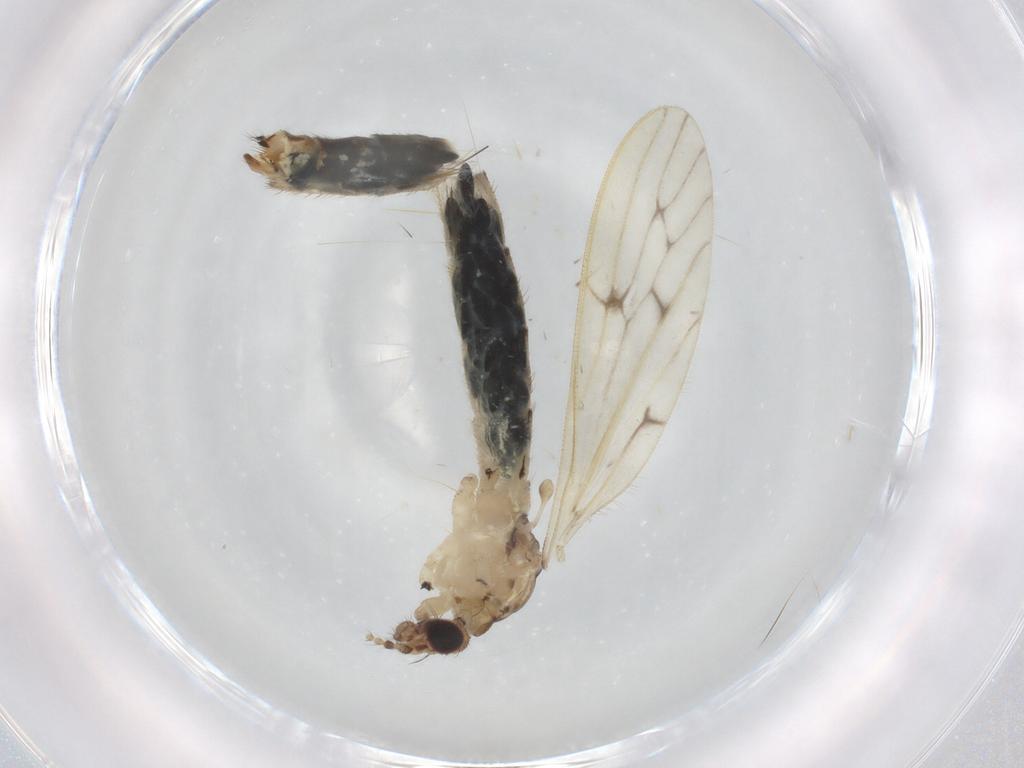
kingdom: Animalia
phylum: Arthropoda
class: Insecta
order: Diptera
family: Limoniidae
